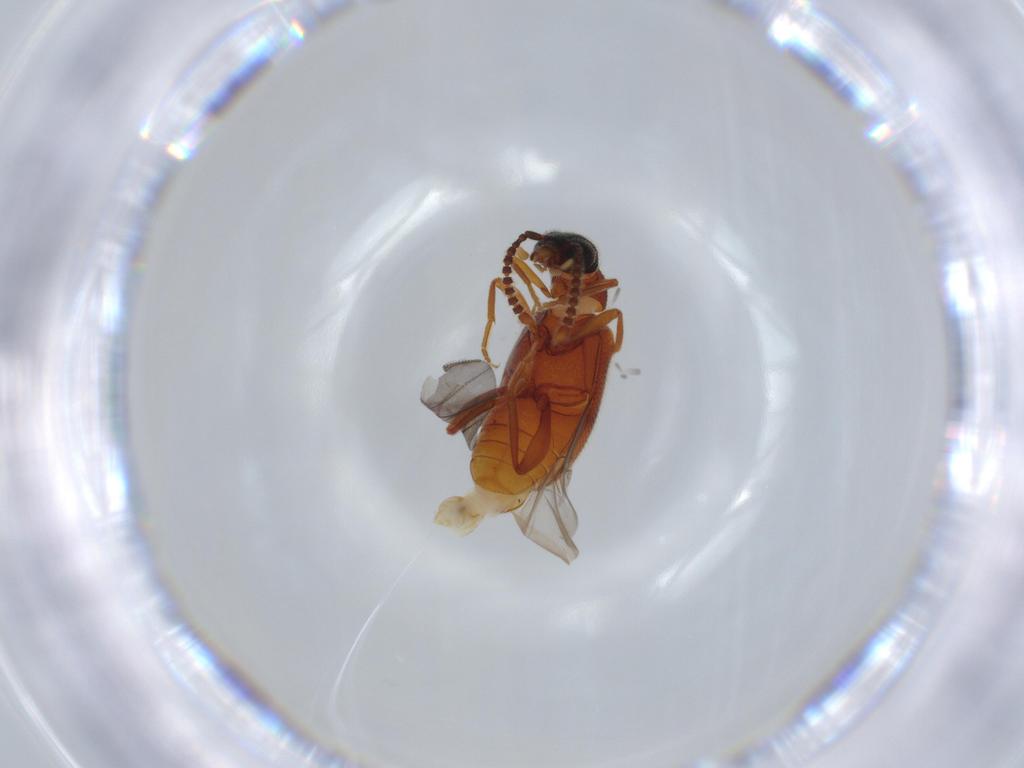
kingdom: Animalia
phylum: Arthropoda
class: Insecta
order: Coleoptera
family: Aderidae
